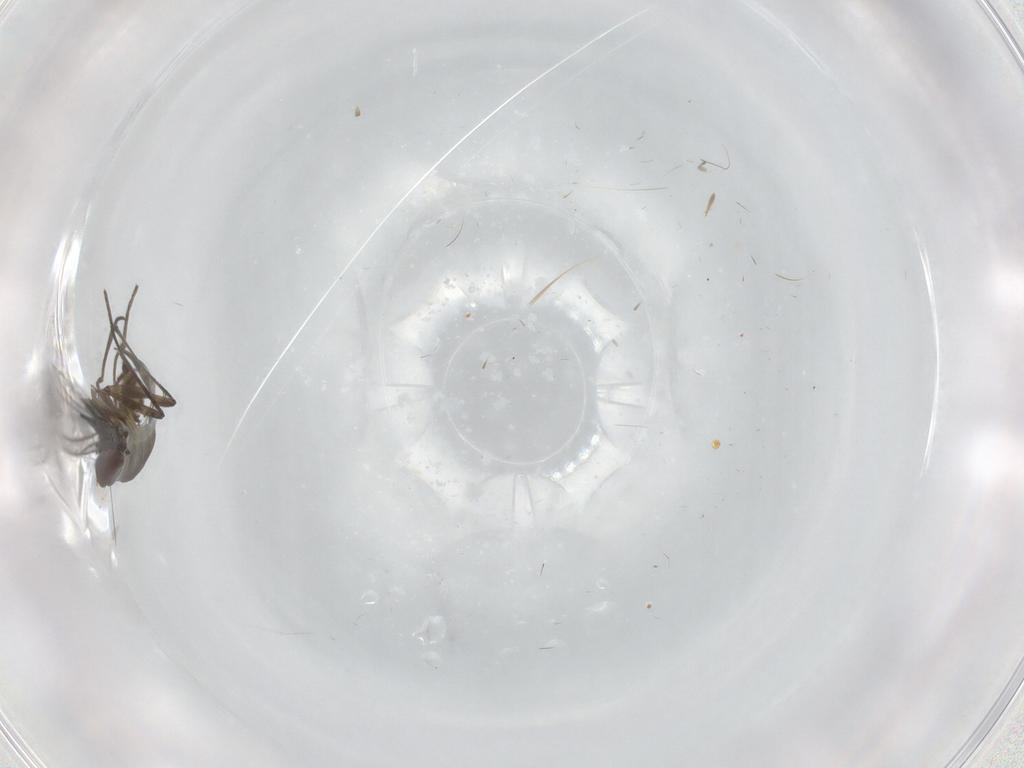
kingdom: Animalia
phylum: Arthropoda
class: Insecta
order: Diptera
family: Sciaridae
